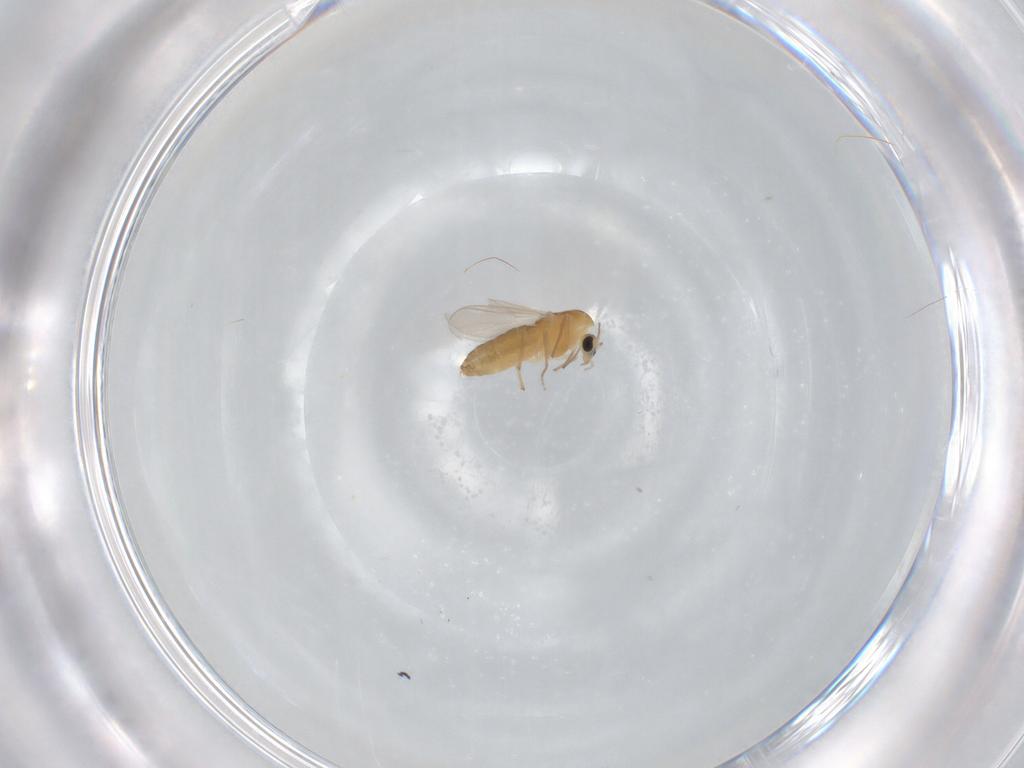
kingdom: Animalia
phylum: Arthropoda
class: Insecta
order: Diptera
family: Chironomidae
